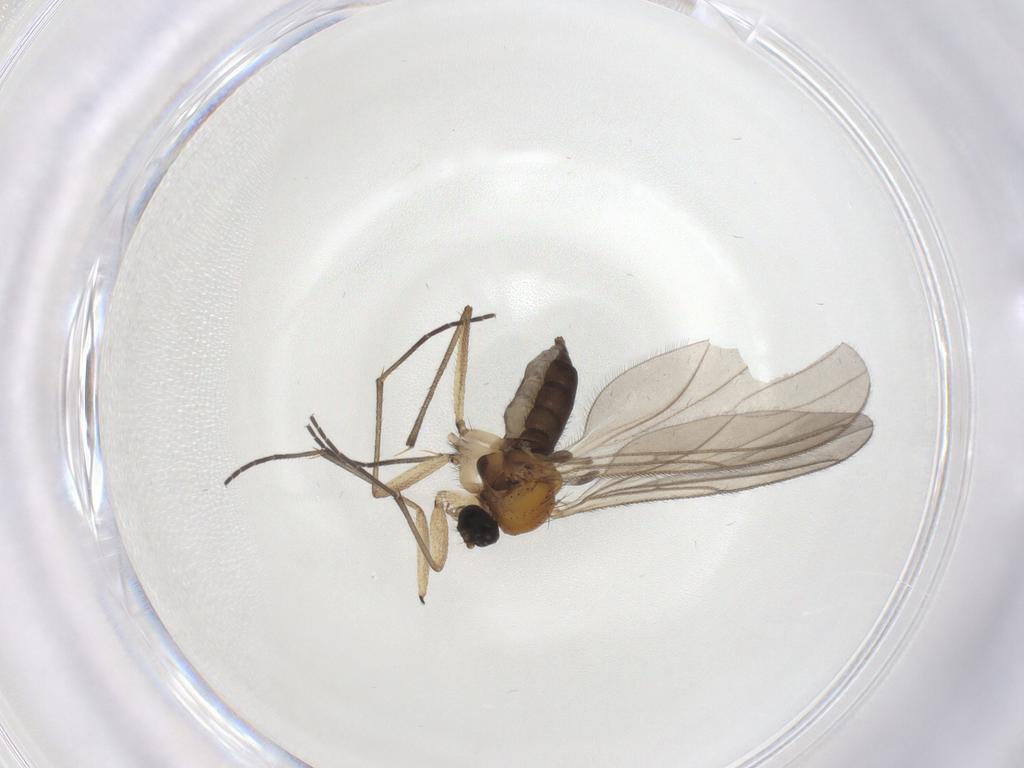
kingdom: Animalia
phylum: Arthropoda
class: Insecta
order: Diptera
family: Sciaridae
